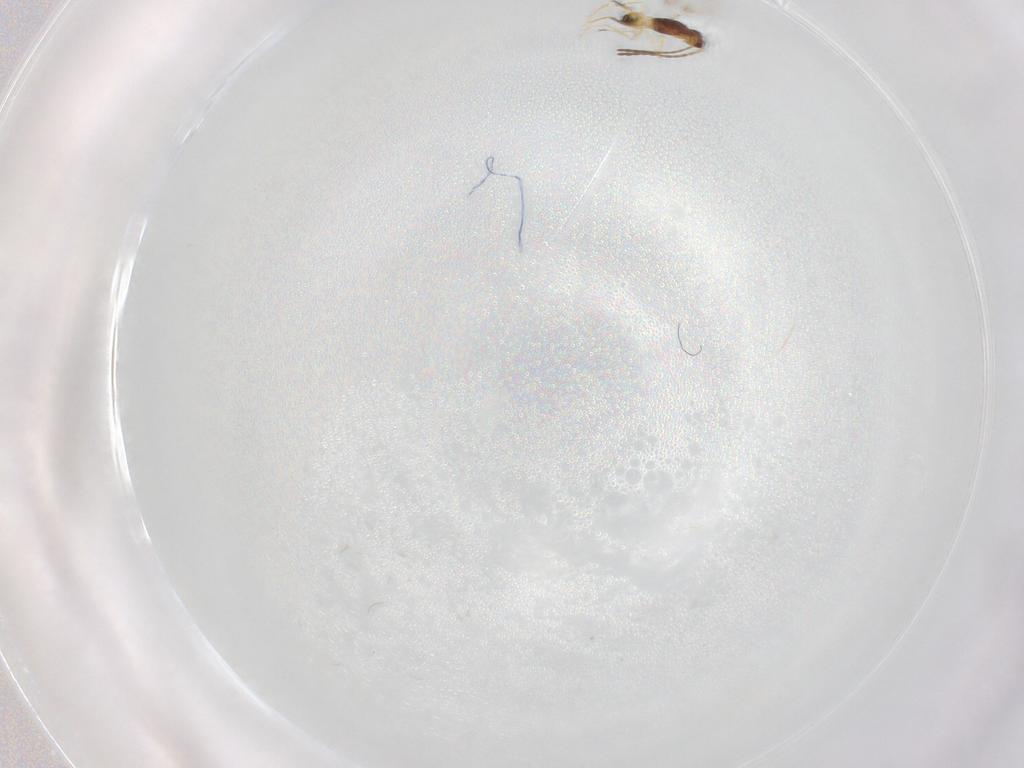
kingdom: Animalia
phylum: Arthropoda
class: Insecta
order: Hymenoptera
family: Mymaridae
